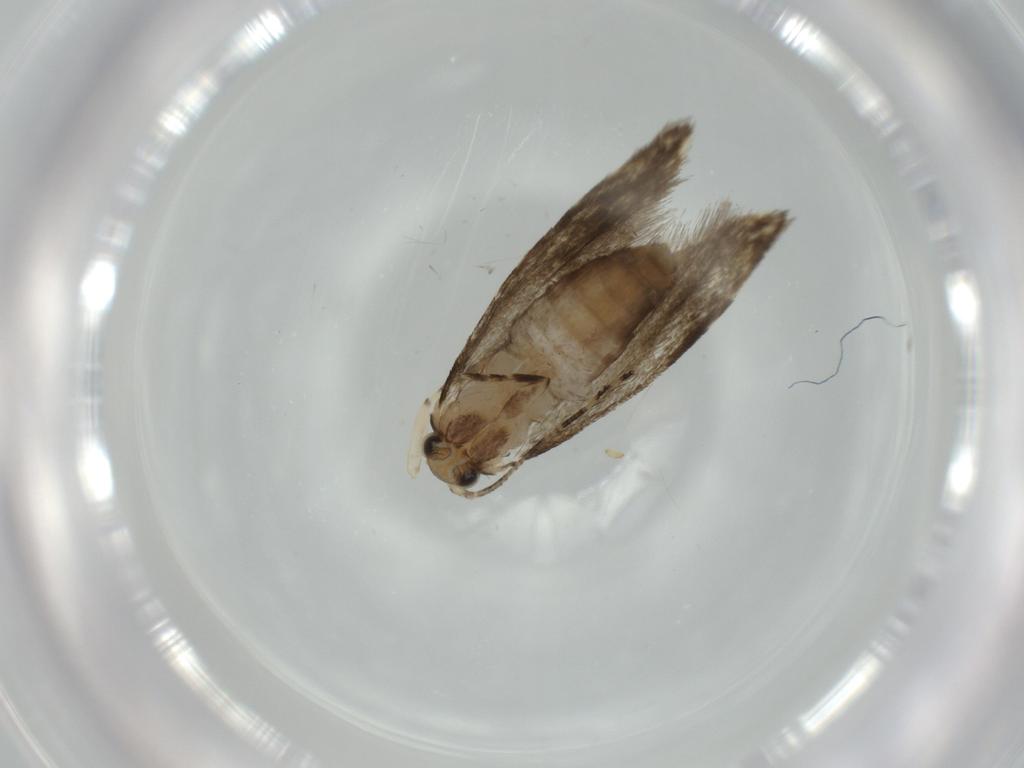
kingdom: Animalia
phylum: Arthropoda
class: Insecta
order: Lepidoptera
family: Tineidae
